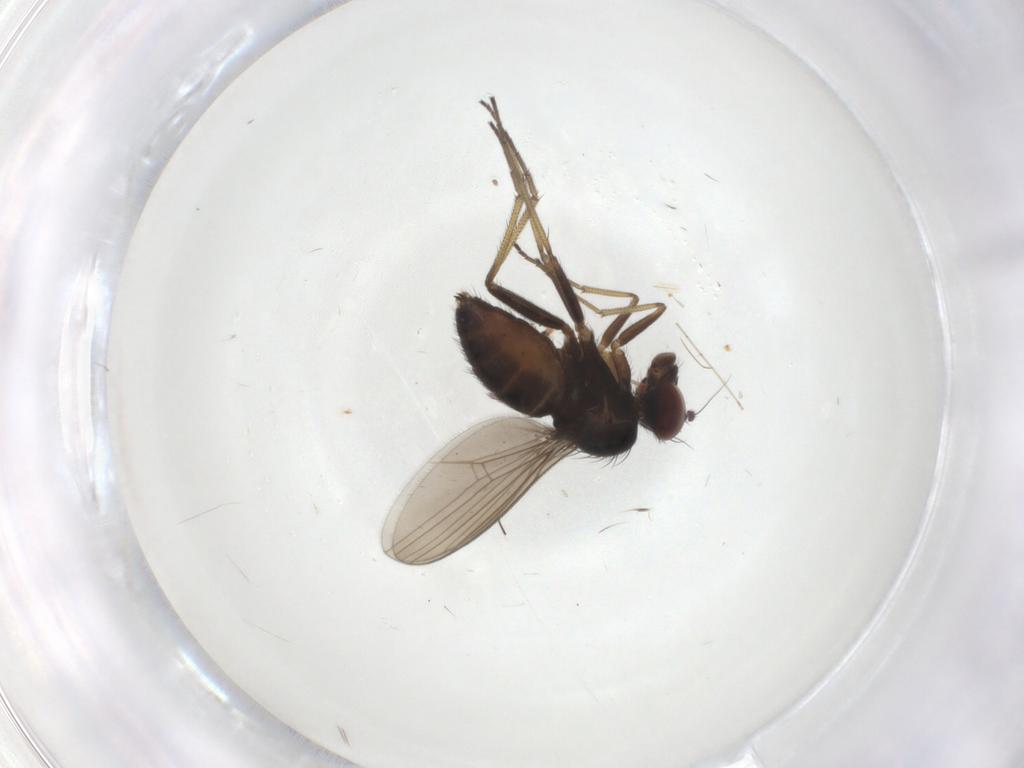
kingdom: Animalia
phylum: Arthropoda
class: Insecta
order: Diptera
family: Dolichopodidae
